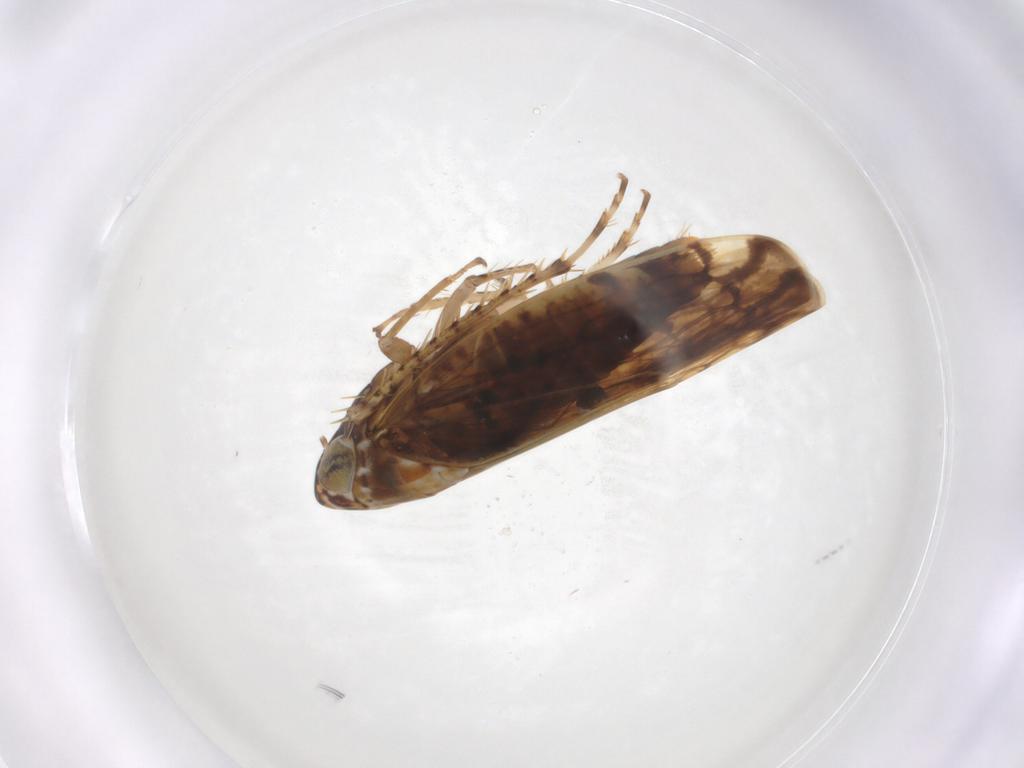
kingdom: Animalia
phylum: Arthropoda
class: Insecta
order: Hemiptera
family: Cicadellidae
